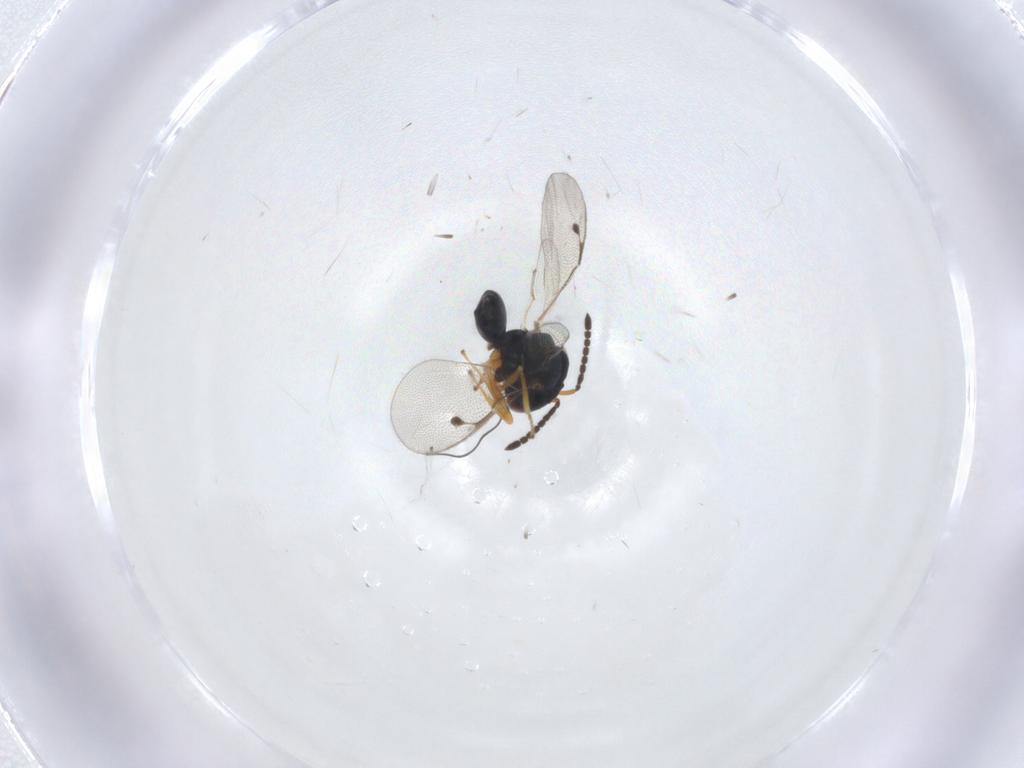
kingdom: Animalia
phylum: Arthropoda
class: Insecta
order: Hymenoptera
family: Pteromalidae
